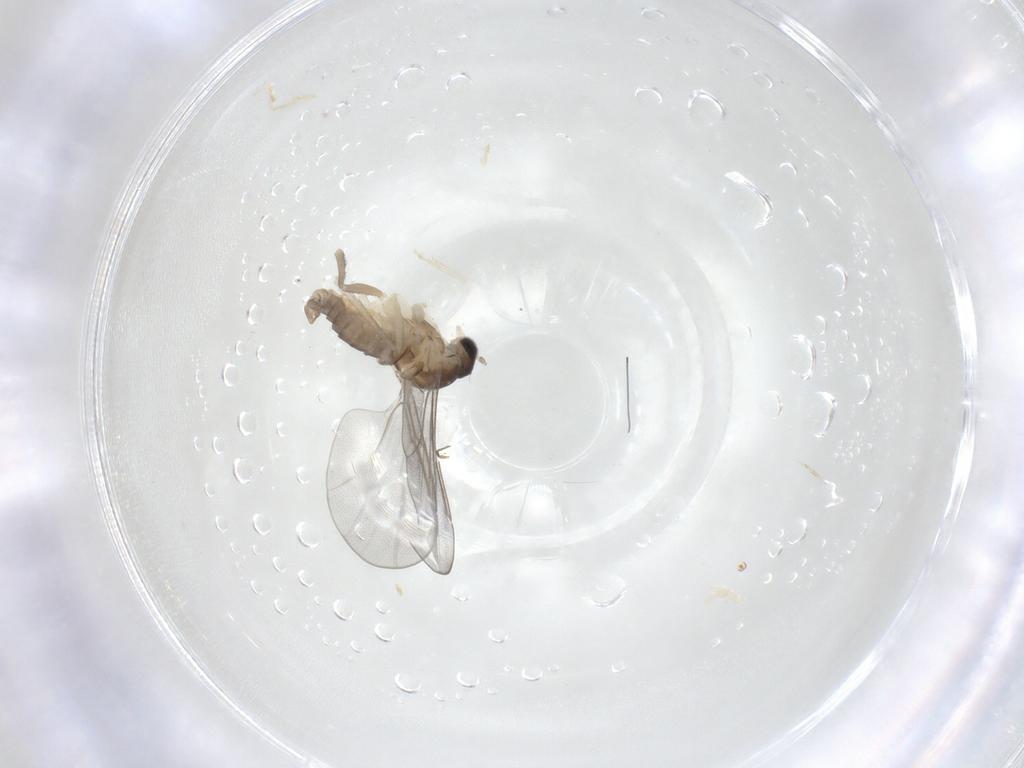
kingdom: Animalia
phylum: Arthropoda
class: Insecta
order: Diptera
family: Cecidomyiidae
